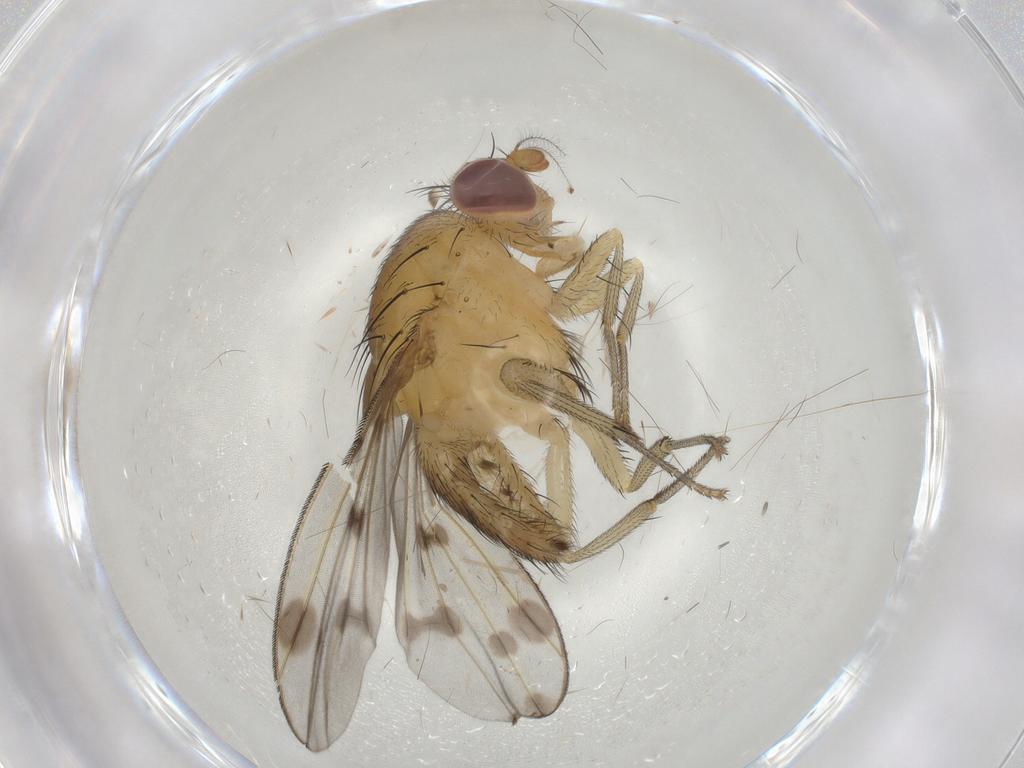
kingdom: Animalia
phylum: Arthropoda
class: Insecta
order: Diptera
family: Cecidomyiidae
